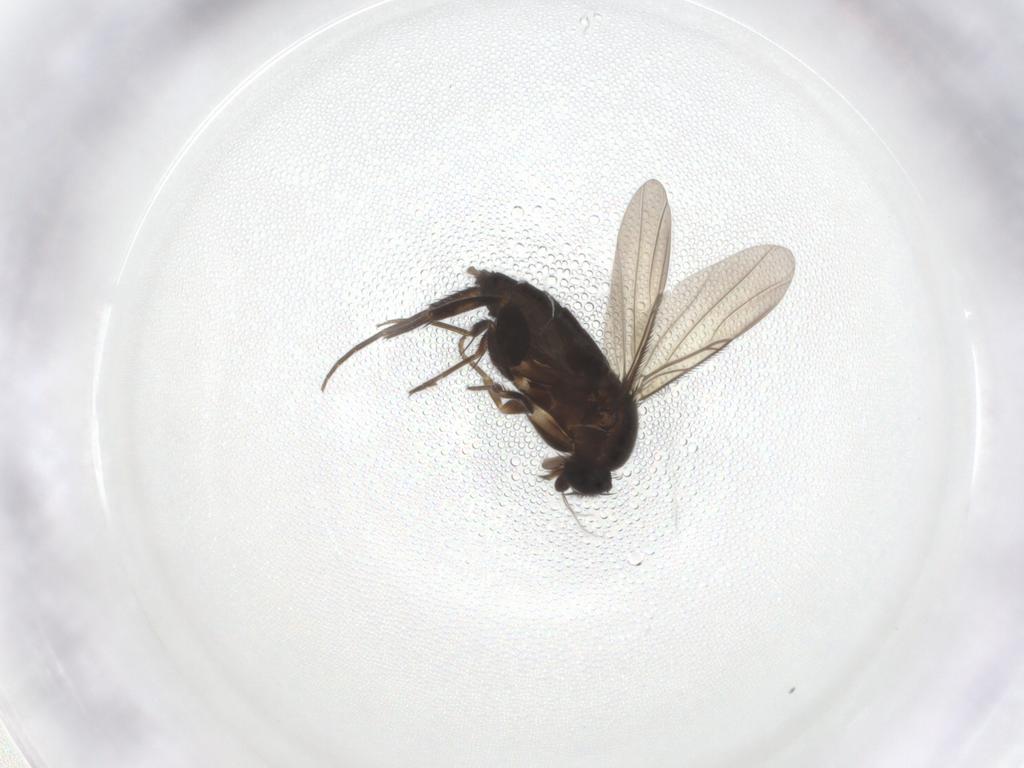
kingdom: Animalia
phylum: Arthropoda
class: Insecta
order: Diptera
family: Phoridae
